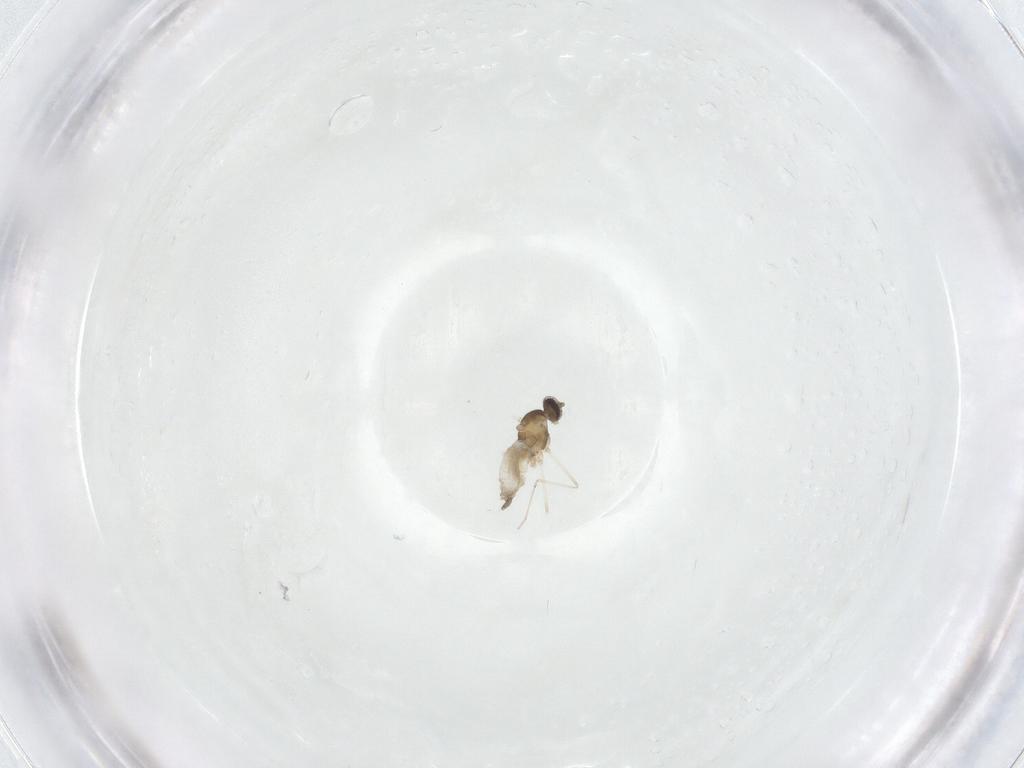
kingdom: Animalia
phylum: Arthropoda
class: Insecta
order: Diptera
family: Cecidomyiidae
